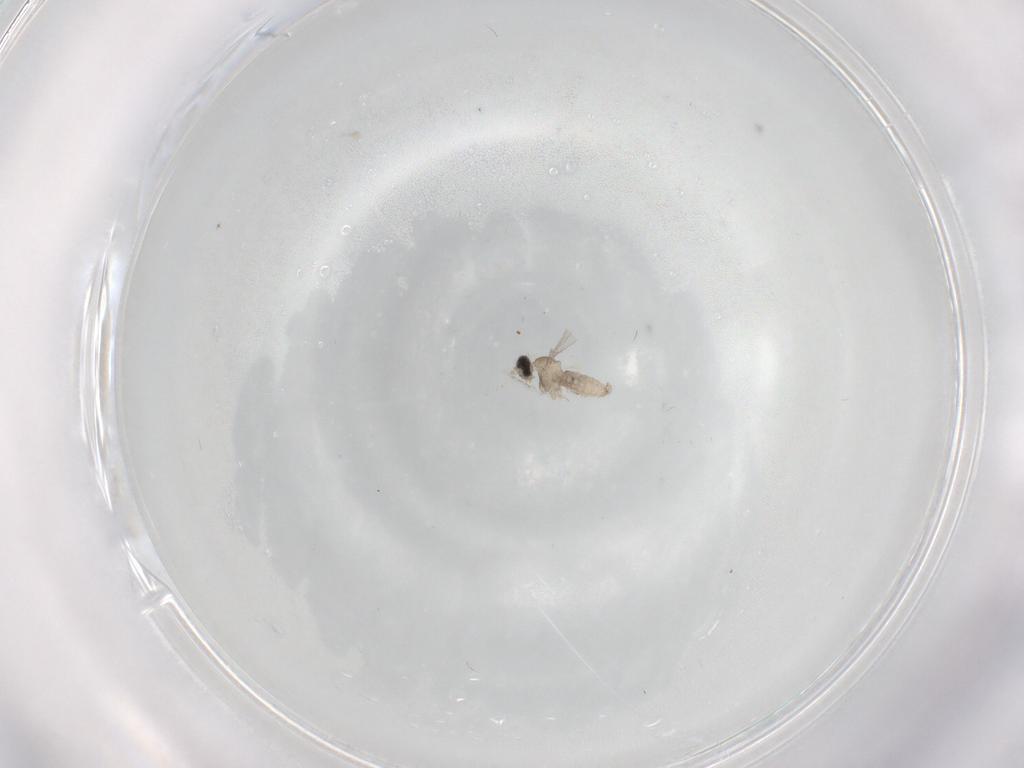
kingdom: Animalia
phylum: Arthropoda
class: Insecta
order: Diptera
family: Cecidomyiidae
